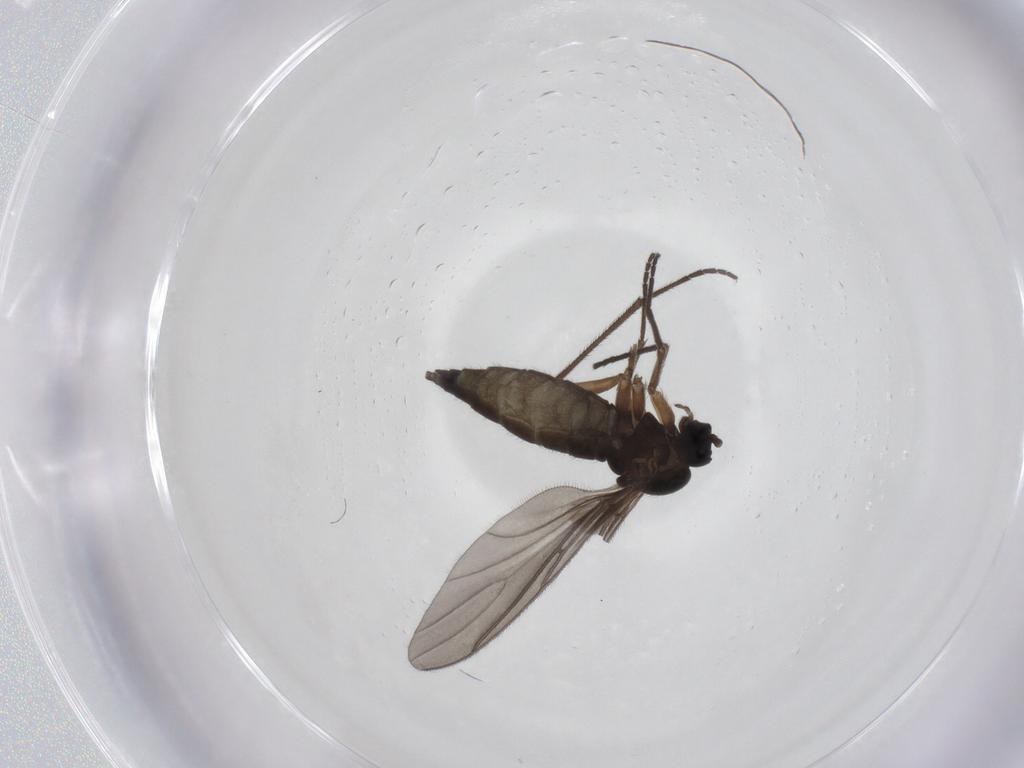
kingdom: Animalia
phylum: Arthropoda
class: Insecta
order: Diptera
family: Sciaridae
